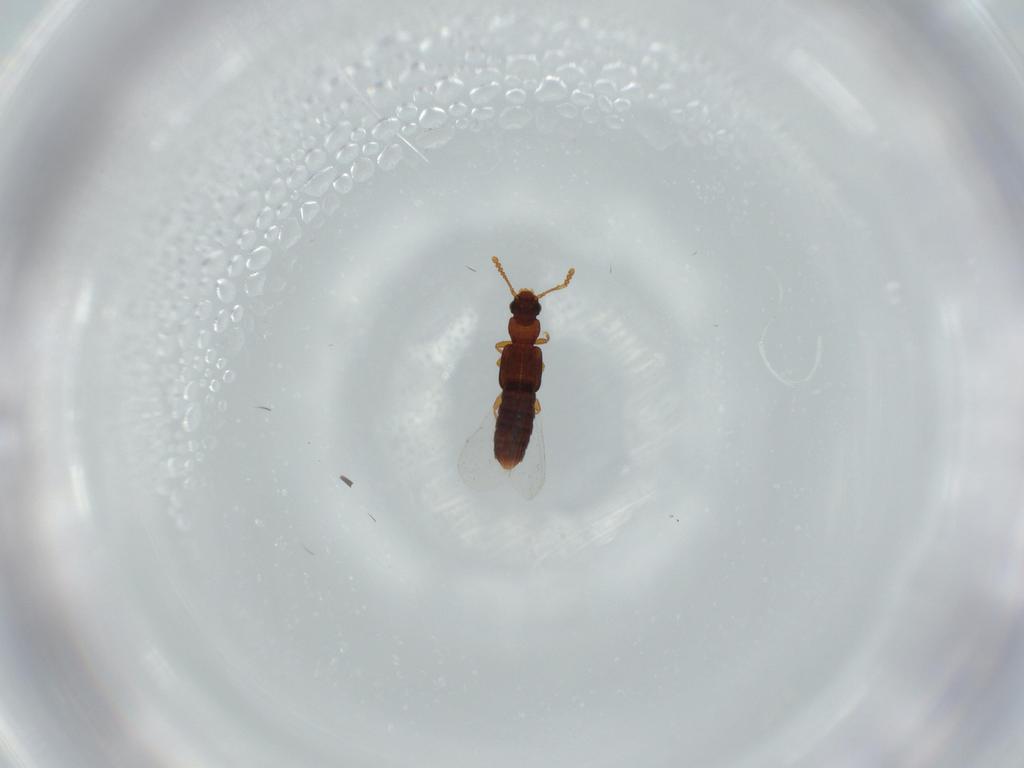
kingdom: Animalia
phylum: Arthropoda
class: Insecta
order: Coleoptera
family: Staphylinidae
